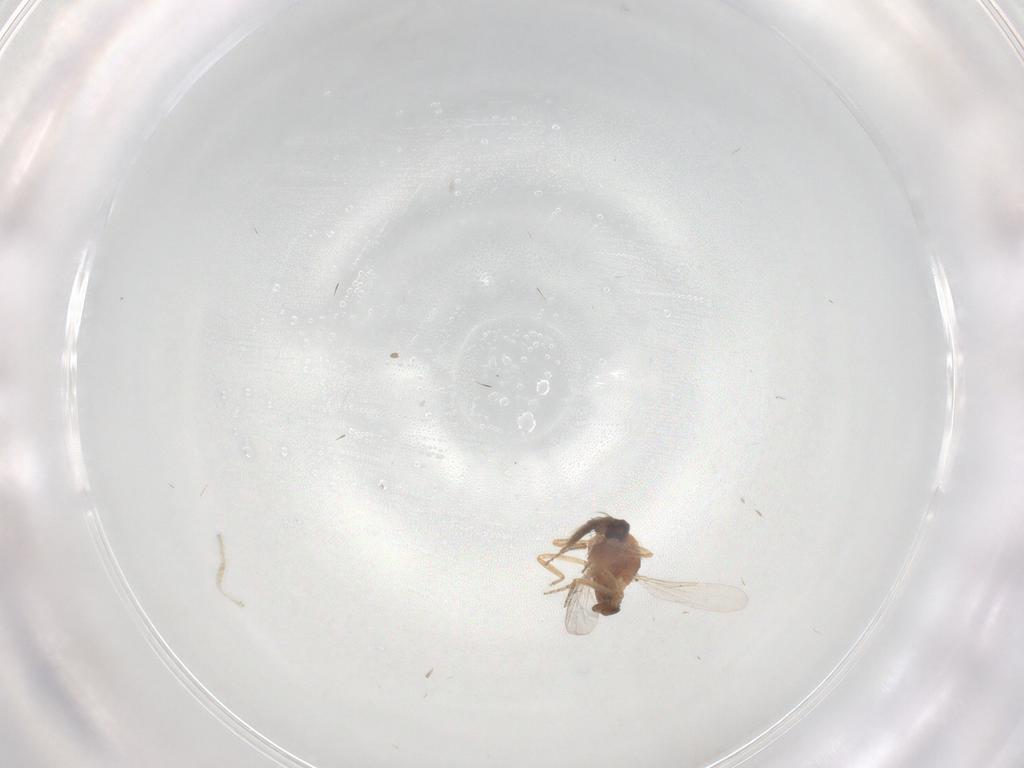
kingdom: Animalia
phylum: Arthropoda
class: Insecta
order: Diptera
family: Ceratopogonidae
